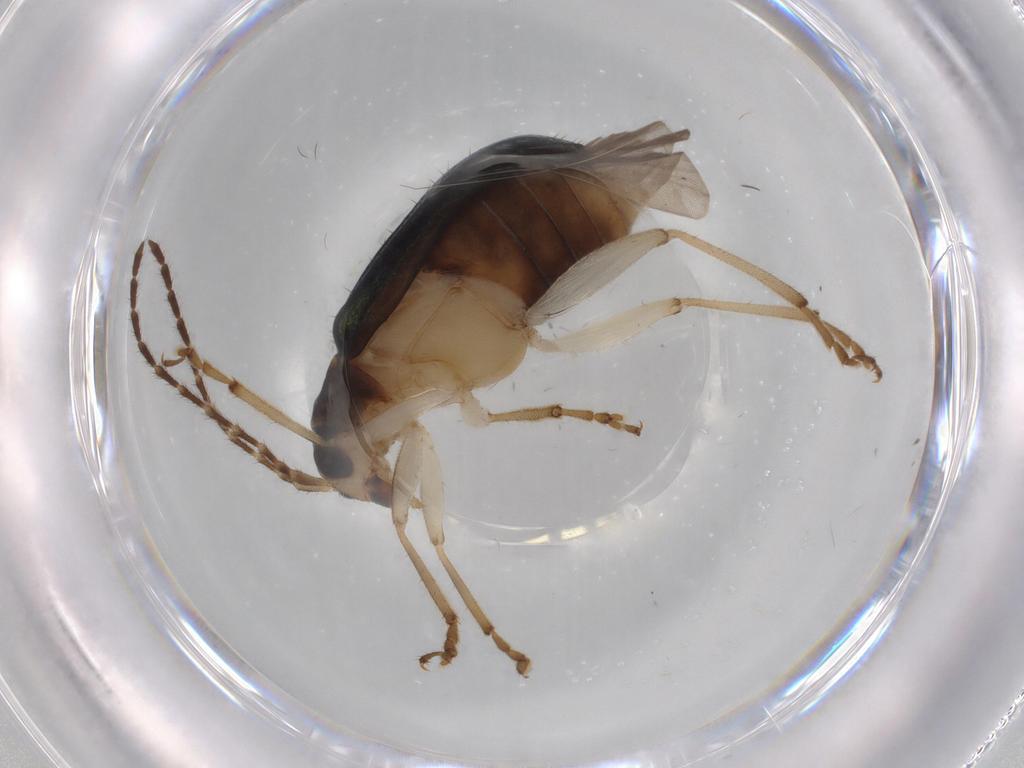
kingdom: Animalia
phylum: Arthropoda
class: Insecta
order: Coleoptera
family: Chrysomelidae
